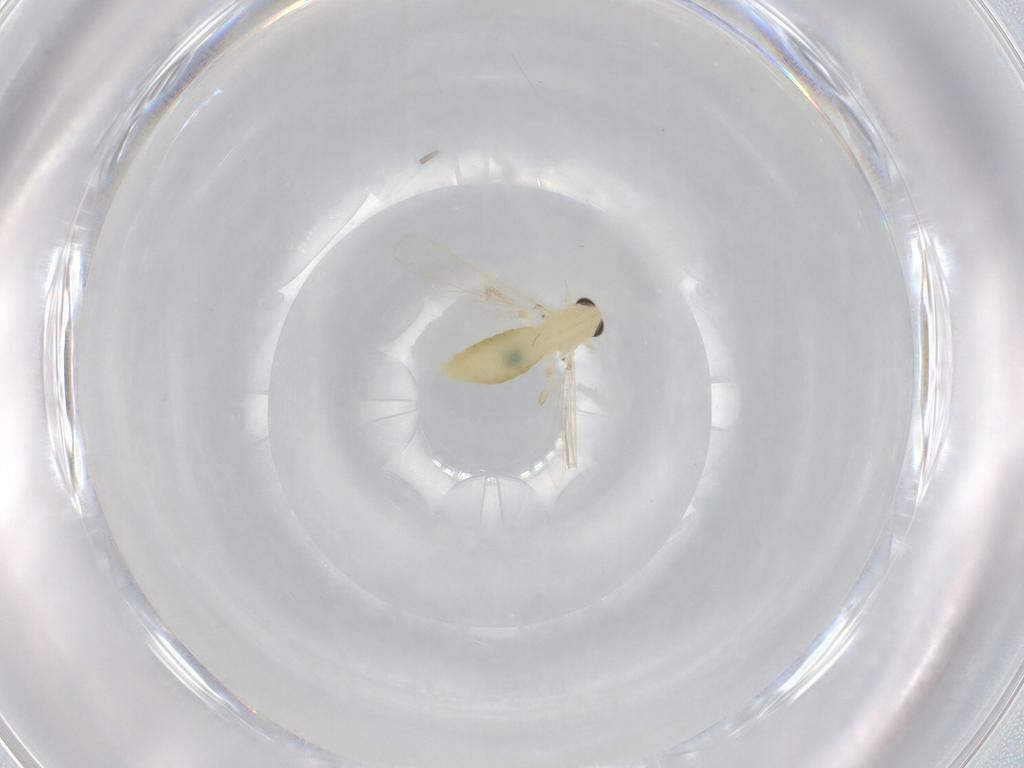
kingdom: Animalia
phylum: Arthropoda
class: Insecta
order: Diptera
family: Chironomidae
